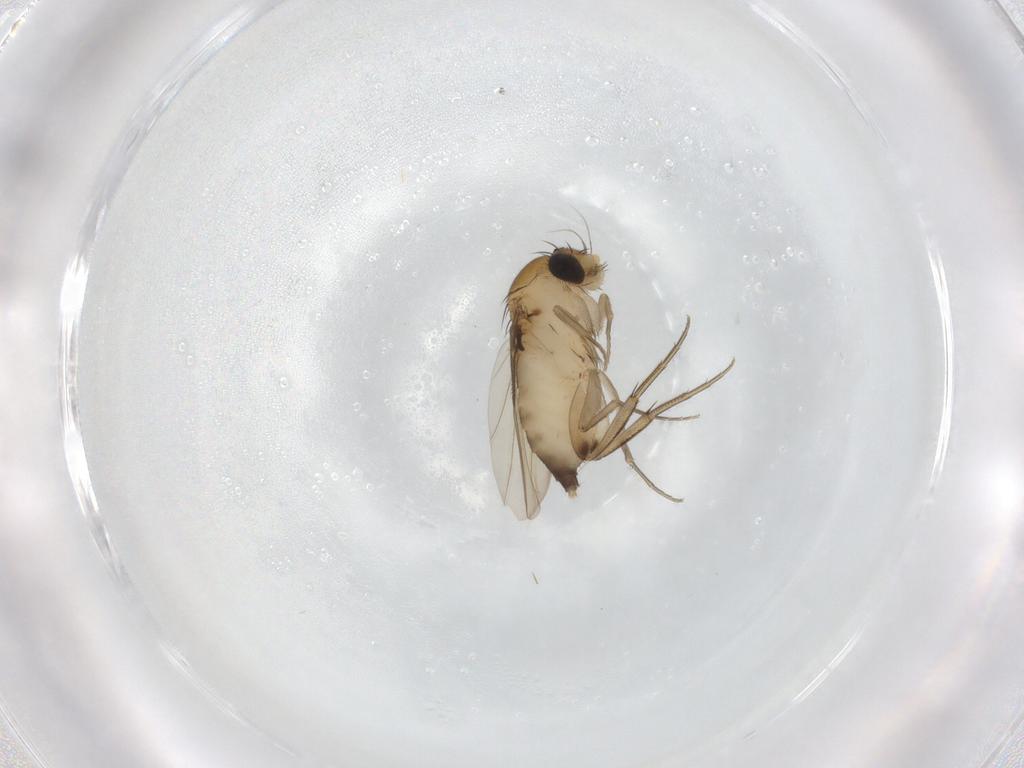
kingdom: Animalia
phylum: Arthropoda
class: Insecta
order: Diptera
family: Phoridae
